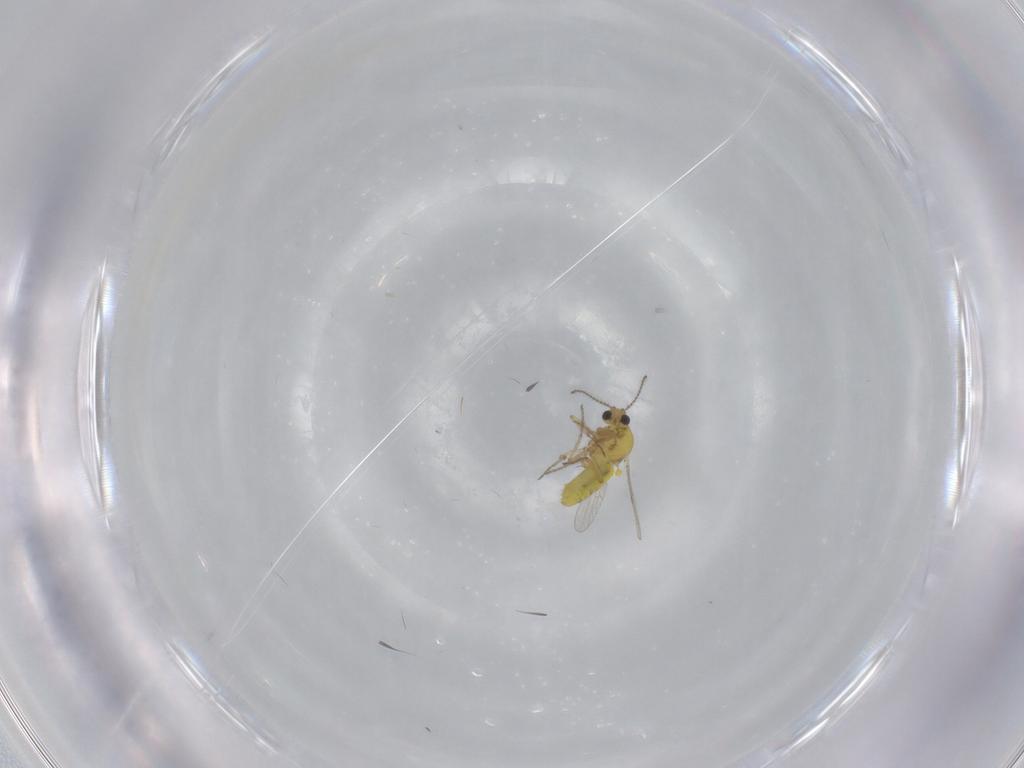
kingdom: Animalia
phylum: Arthropoda
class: Insecta
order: Diptera
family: Ceratopogonidae
